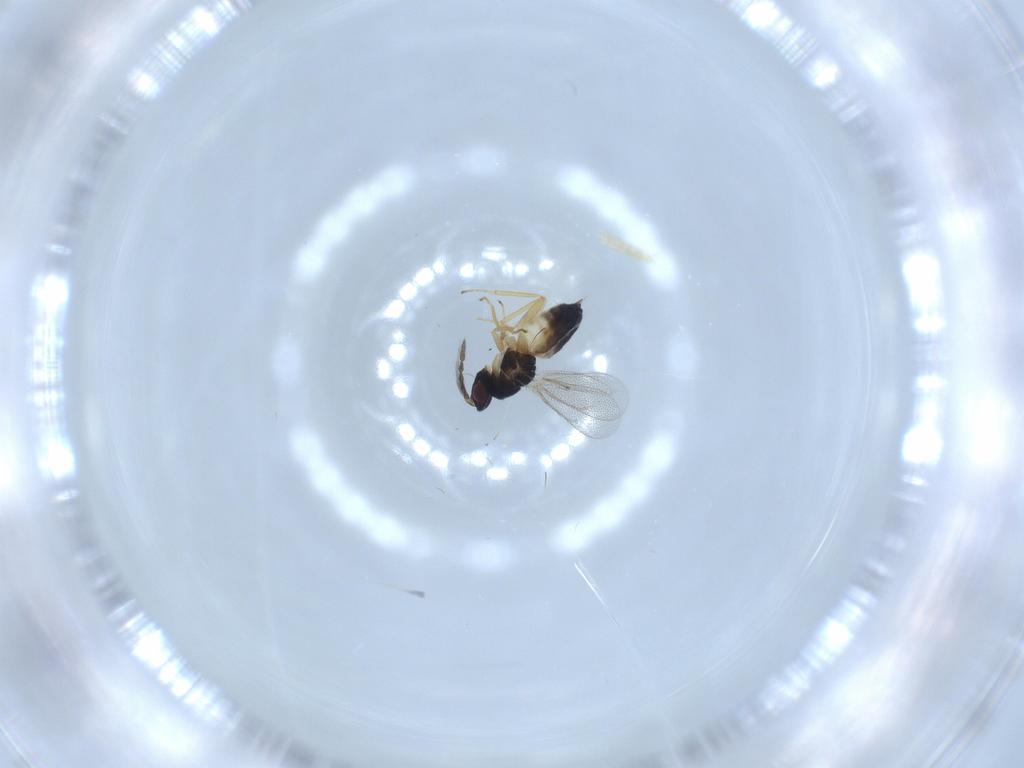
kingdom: Animalia
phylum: Arthropoda
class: Insecta
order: Hymenoptera
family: Eulophidae
